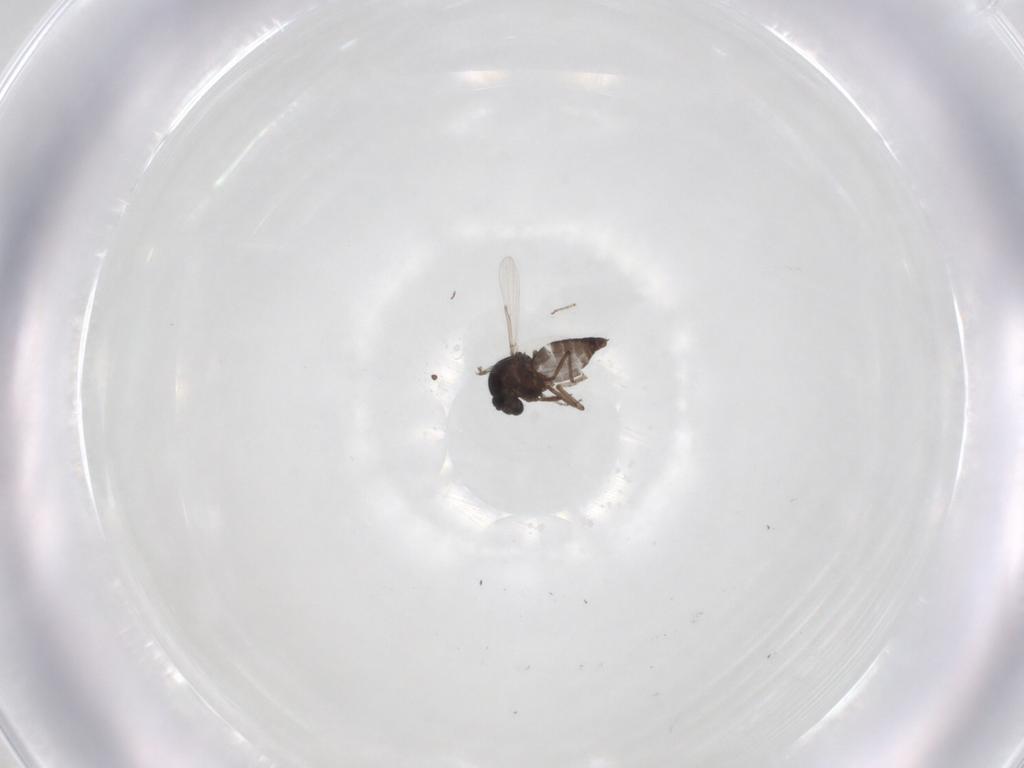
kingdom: Animalia
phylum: Arthropoda
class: Insecta
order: Diptera
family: Ceratopogonidae
